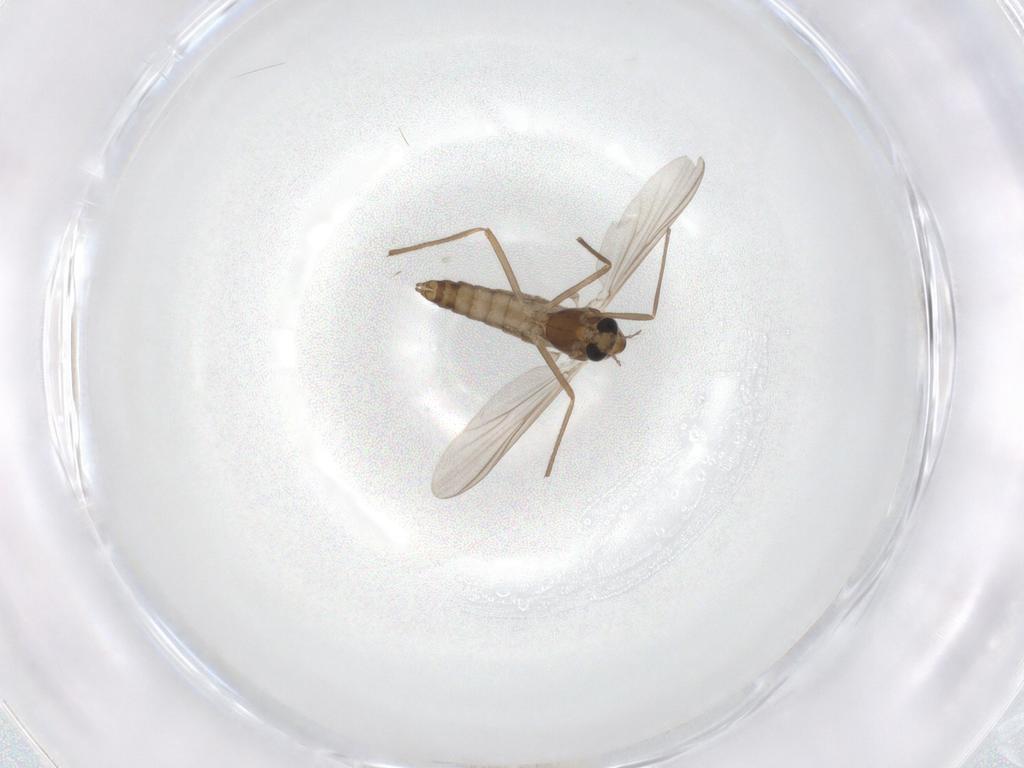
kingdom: Animalia
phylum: Arthropoda
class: Insecta
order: Diptera
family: Chironomidae
